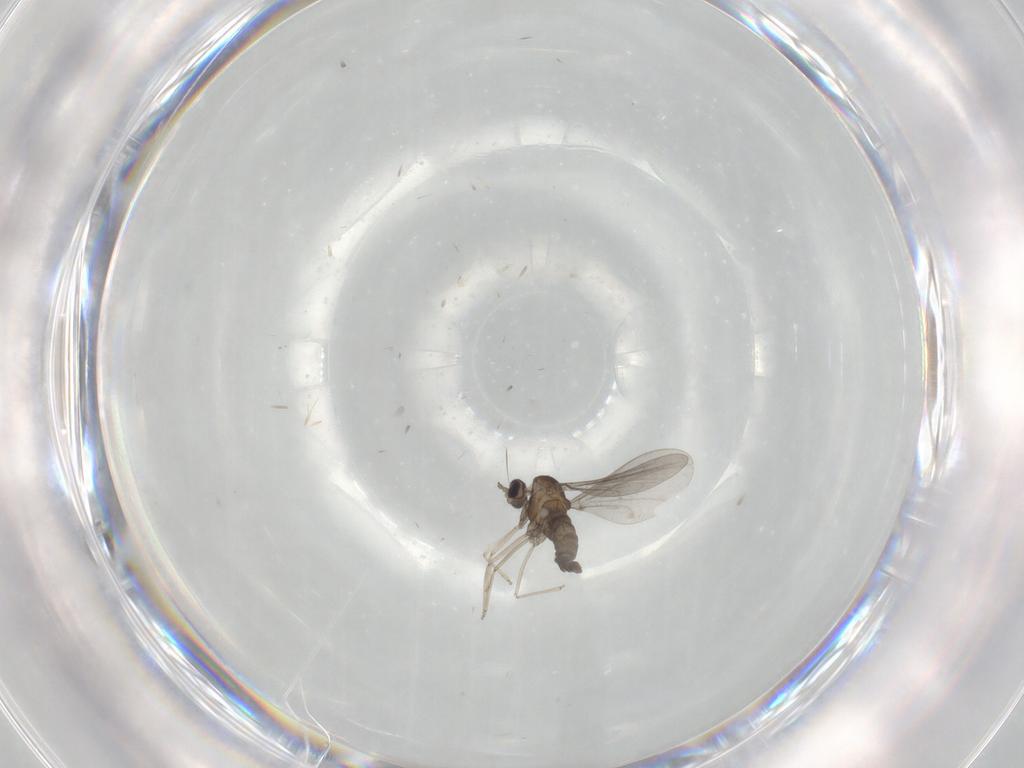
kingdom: Animalia
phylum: Arthropoda
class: Insecta
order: Diptera
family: Cecidomyiidae
